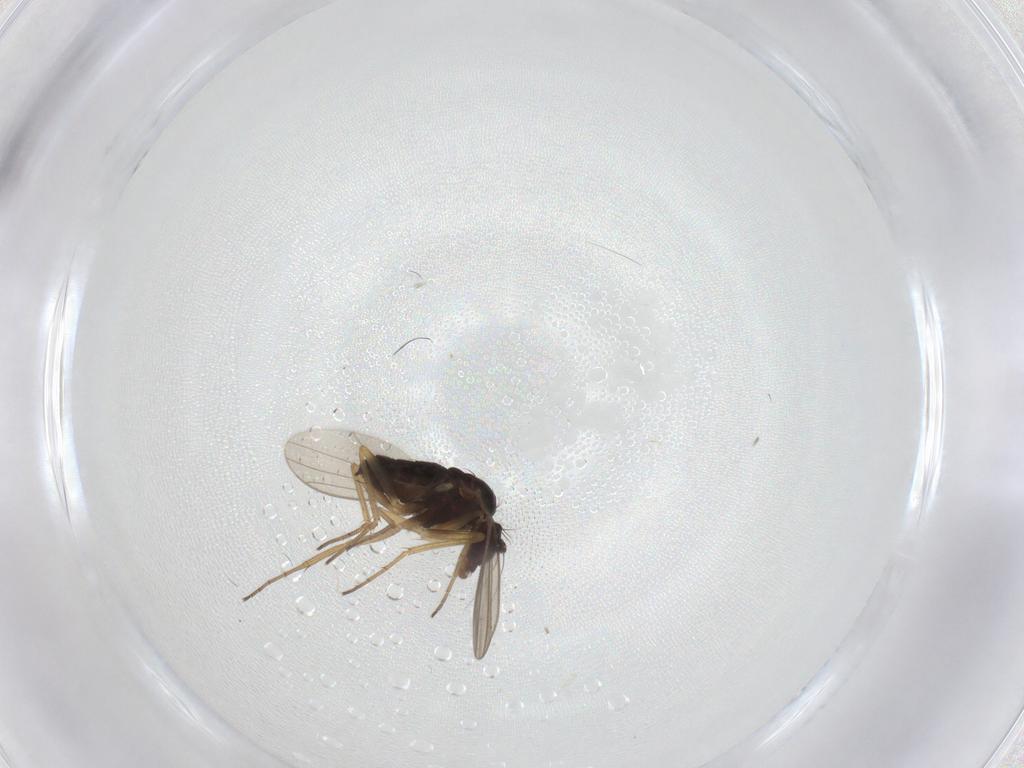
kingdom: Animalia
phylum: Arthropoda
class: Insecta
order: Diptera
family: Dolichopodidae
